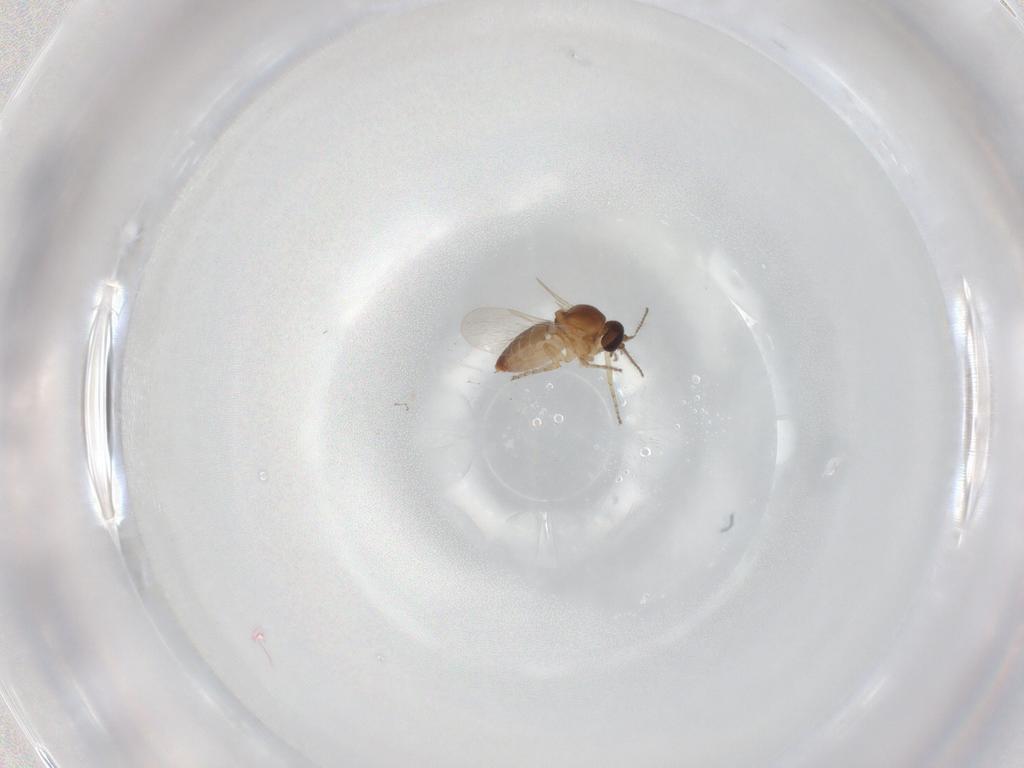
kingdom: Animalia
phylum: Arthropoda
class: Insecta
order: Diptera
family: Cecidomyiidae
